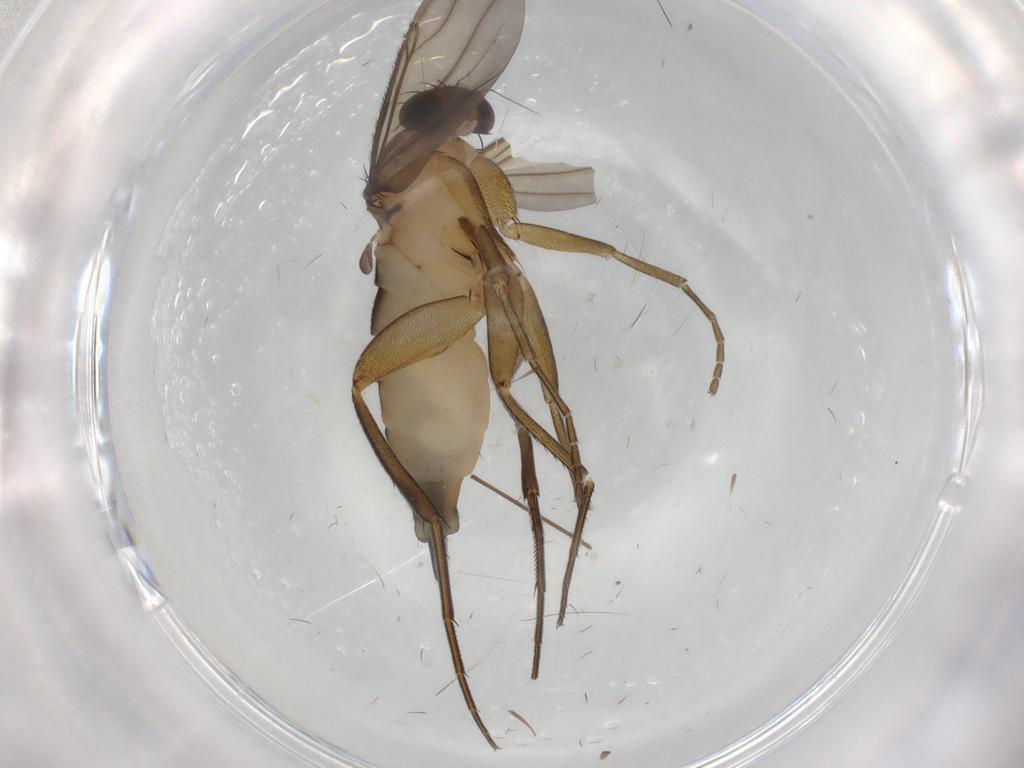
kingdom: Animalia
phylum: Arthropoda
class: Insecta
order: Diptera
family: Phoridae
